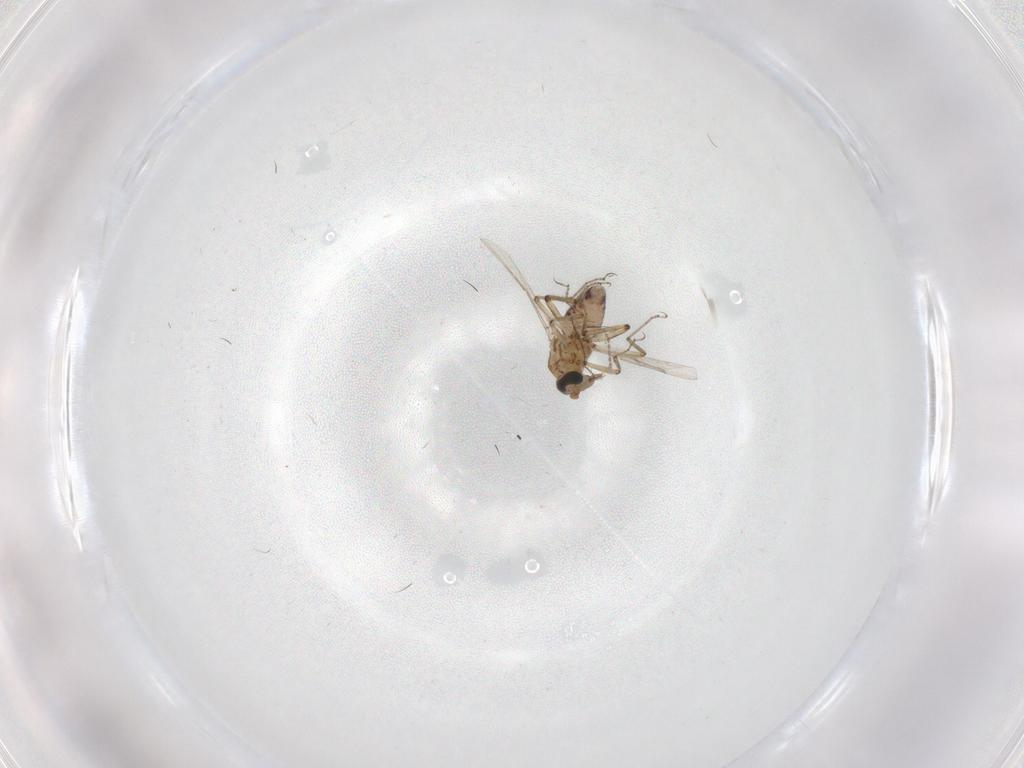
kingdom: Animalia
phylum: Arthropoda
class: Insecta
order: Diptera
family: Ceratopogonidae
